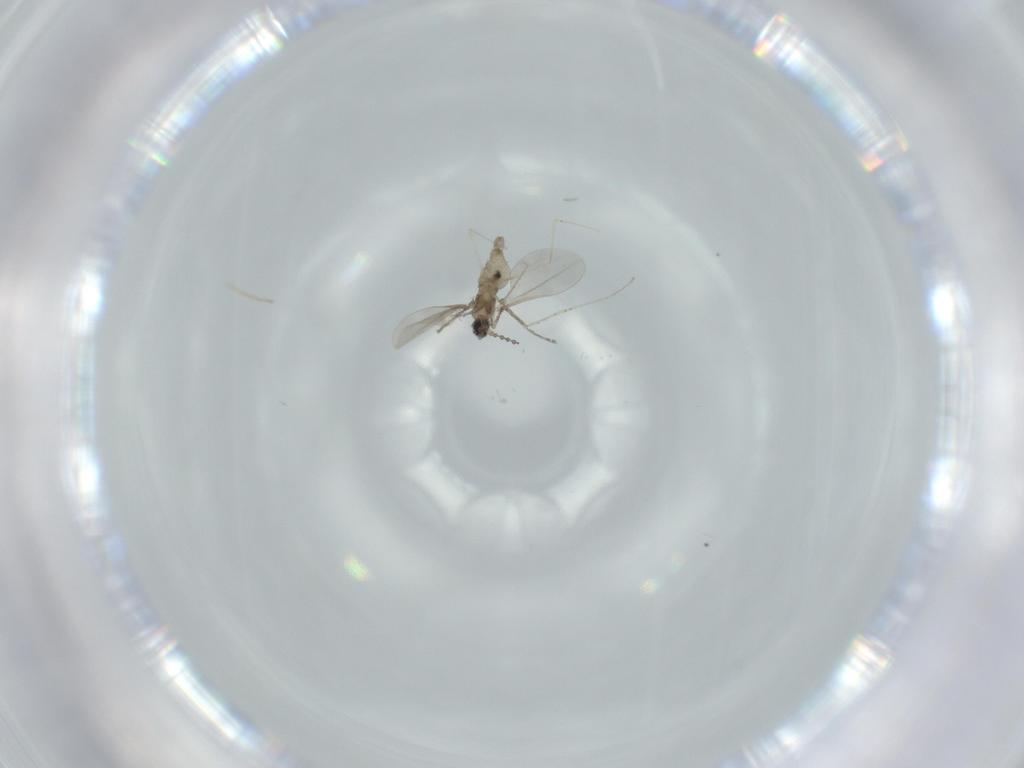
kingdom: Animalia
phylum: Arthropoda
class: Insecta
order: Diptera
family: Cecidomyiidae
